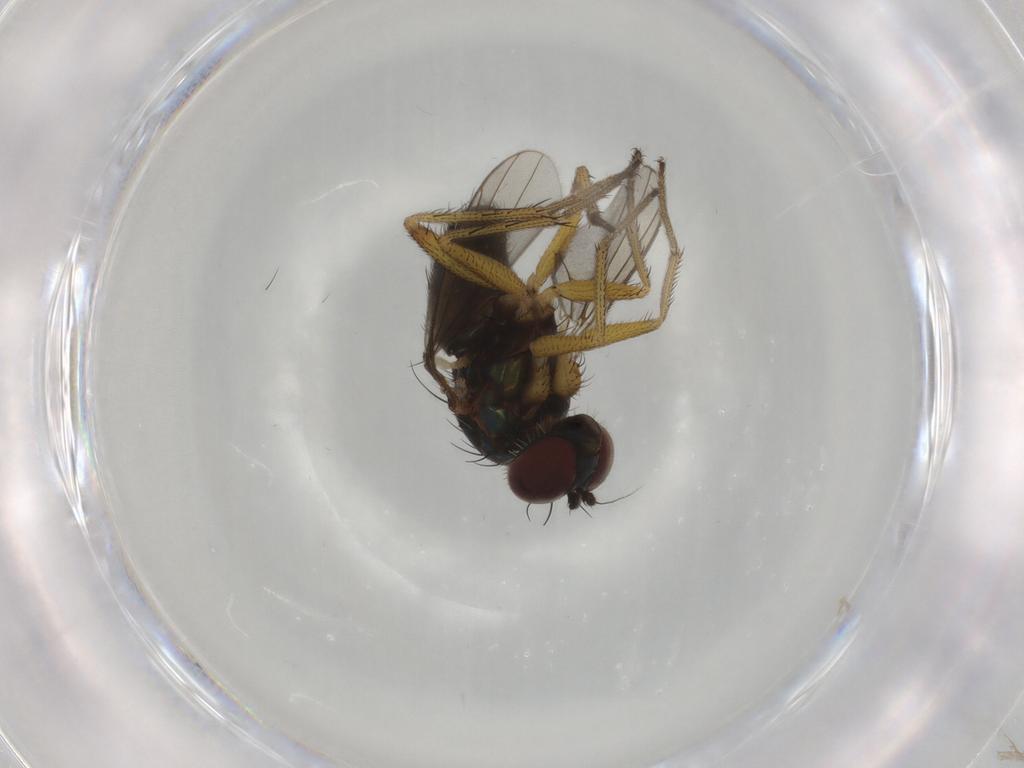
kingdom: Animalia
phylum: Arthropoda
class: Insecta
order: Diptera
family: Dolichopodidae
